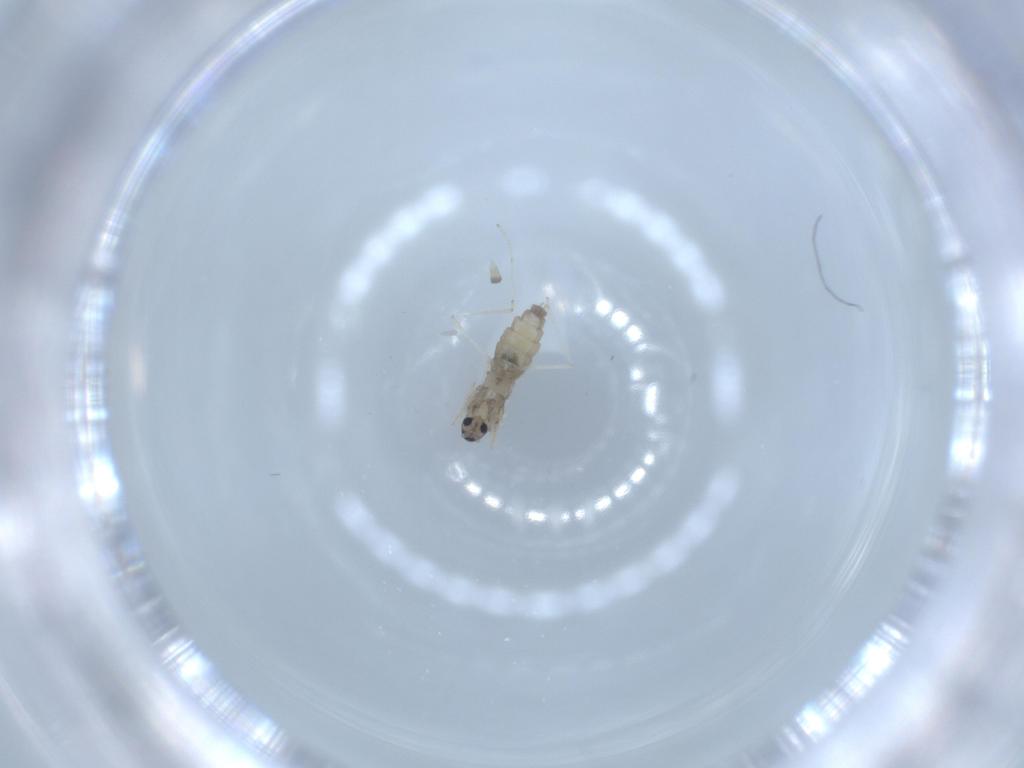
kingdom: Animalia
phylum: Arthropoda
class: Insecta
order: Diptera
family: Cecidomyiidae
